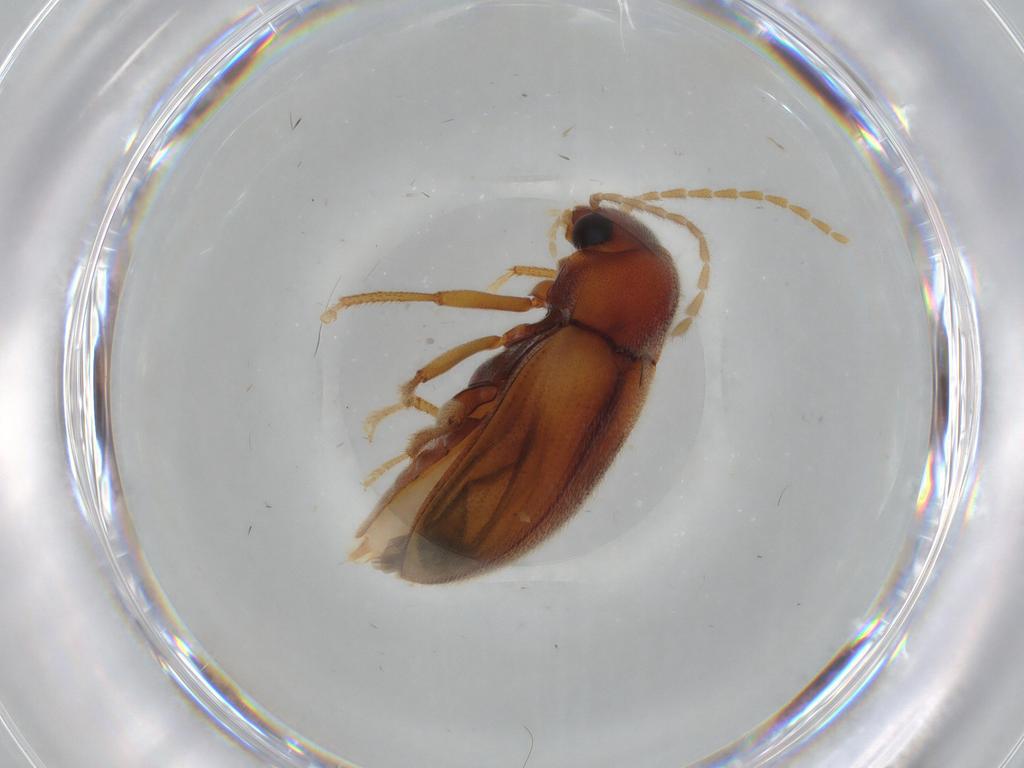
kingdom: Animalia
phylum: Arthropoda
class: Insecta
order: Coleoptera
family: Ptilodactylidae
